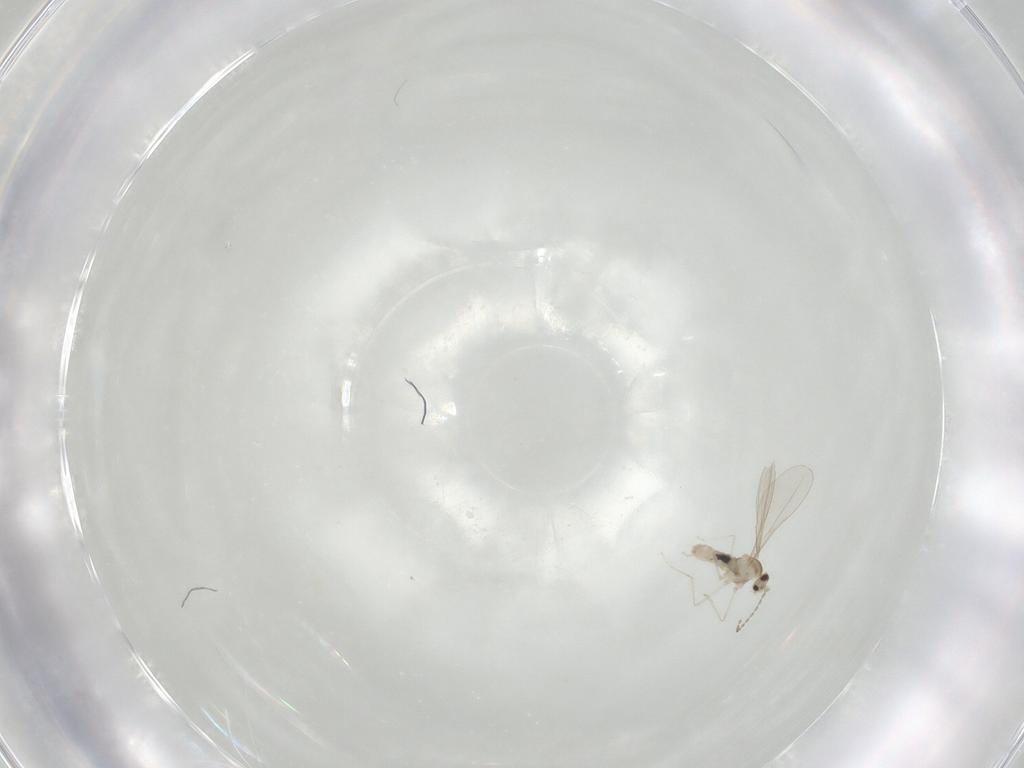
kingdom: Animalia
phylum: Arthropoda
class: Insecta
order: Diptera
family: Cecidomyiidae
